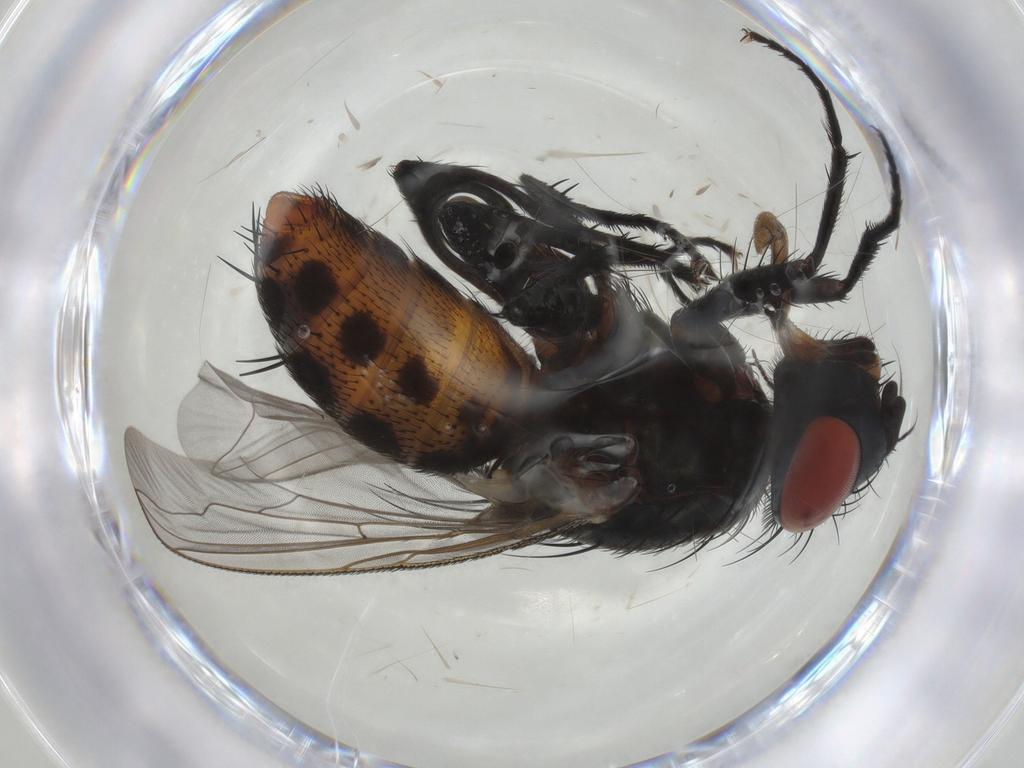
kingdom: Animalia
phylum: Arthropoda
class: Insecta
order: Diptera
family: Sarcophagidae
